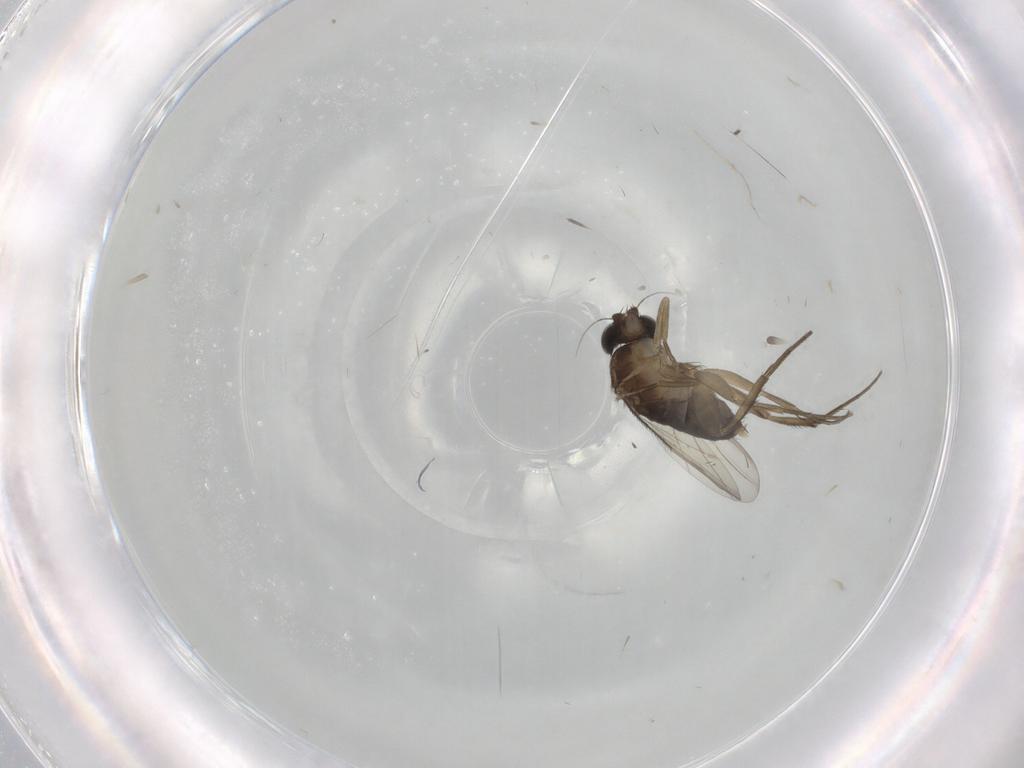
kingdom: Animalia
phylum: Arthropoda
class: Insecta
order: Diptera
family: Phoridae
